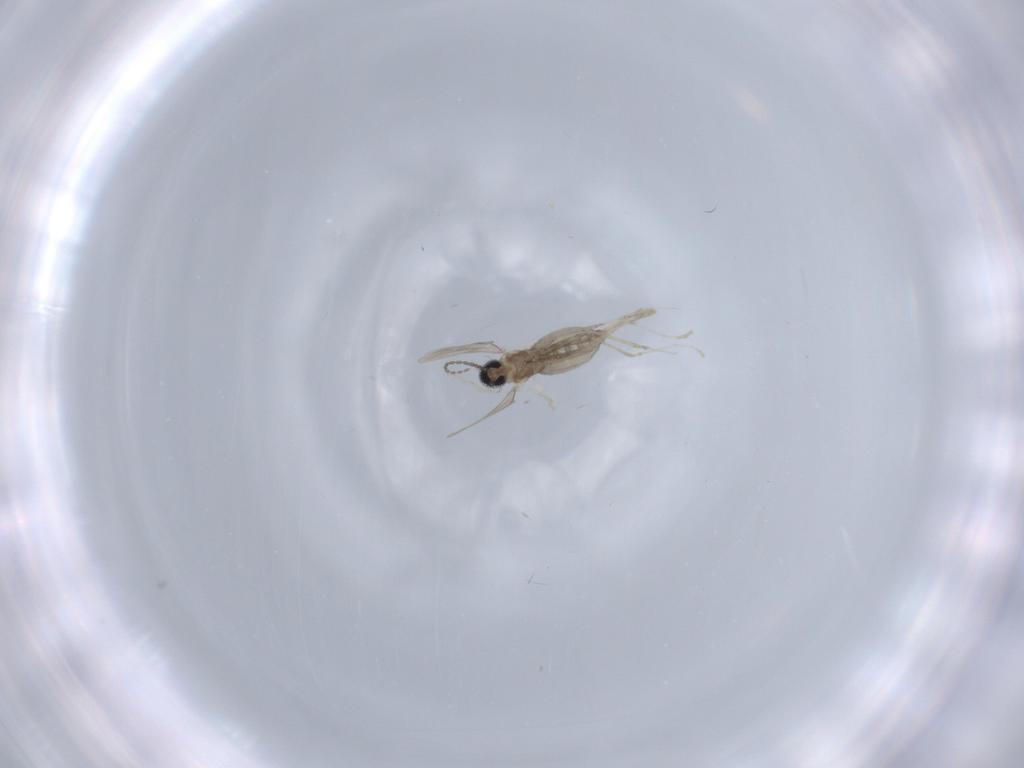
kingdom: Animalia
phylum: Arthropoda
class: Insecta
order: Diptera
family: Cecidomyiidae
